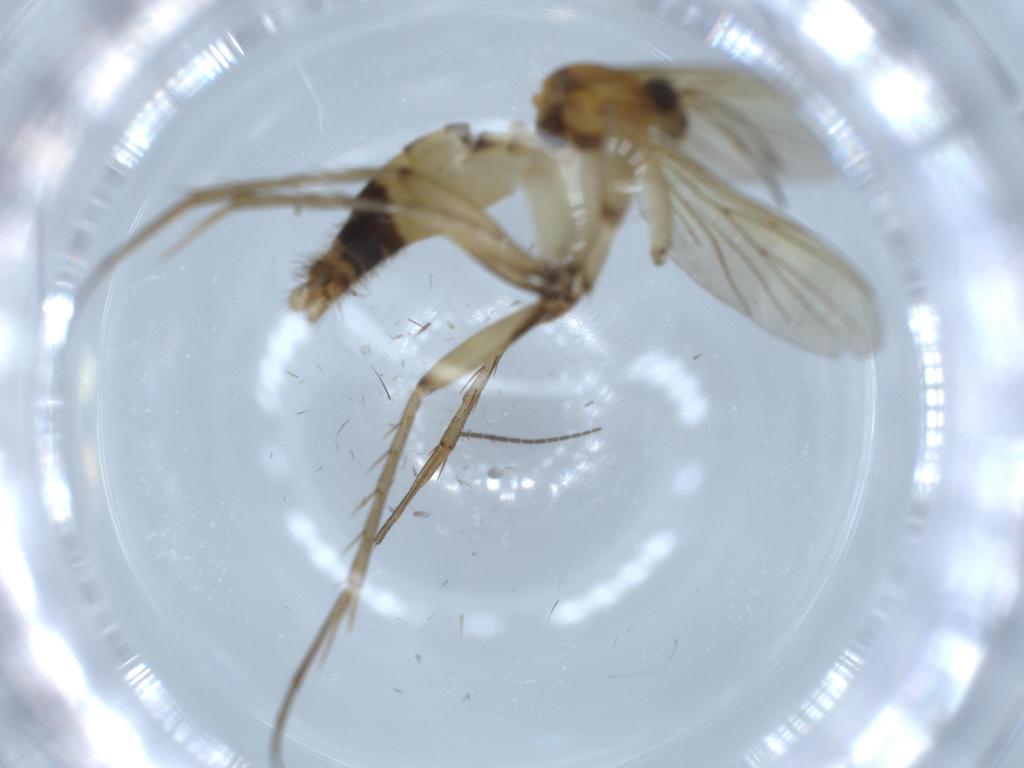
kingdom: Animalia
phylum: Arthropoda
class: Insecta
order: Diptera
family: Mycetophilidae
